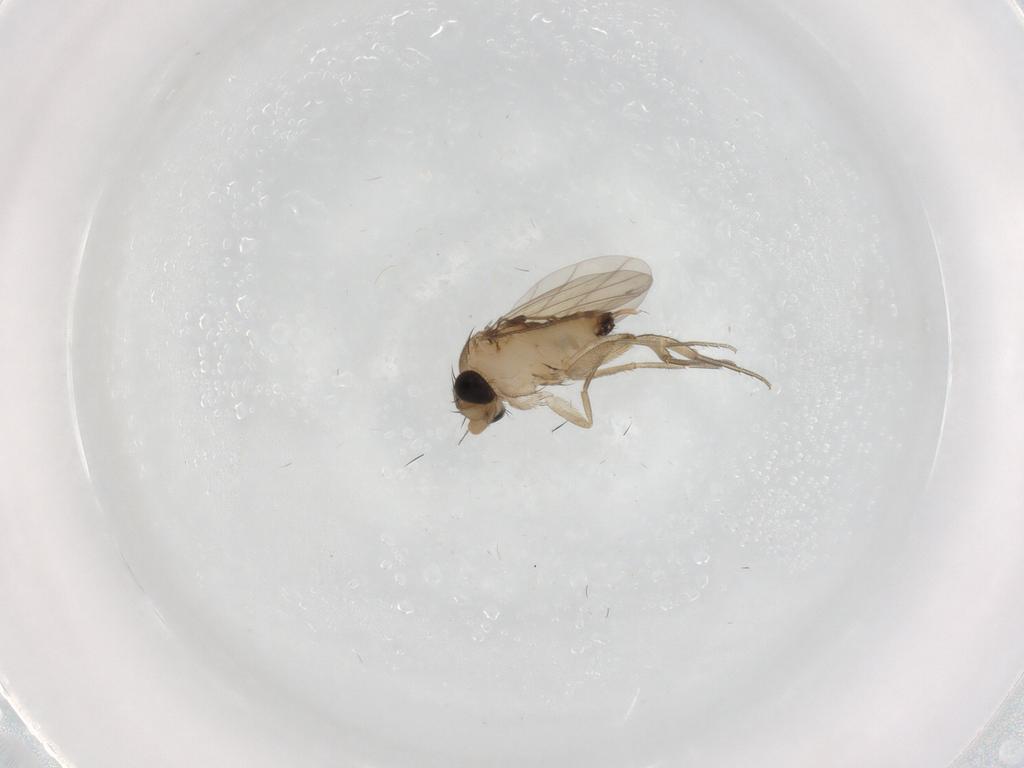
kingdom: Animalia
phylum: Arthropoda
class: Insecta
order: Diptera
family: Phoridae
